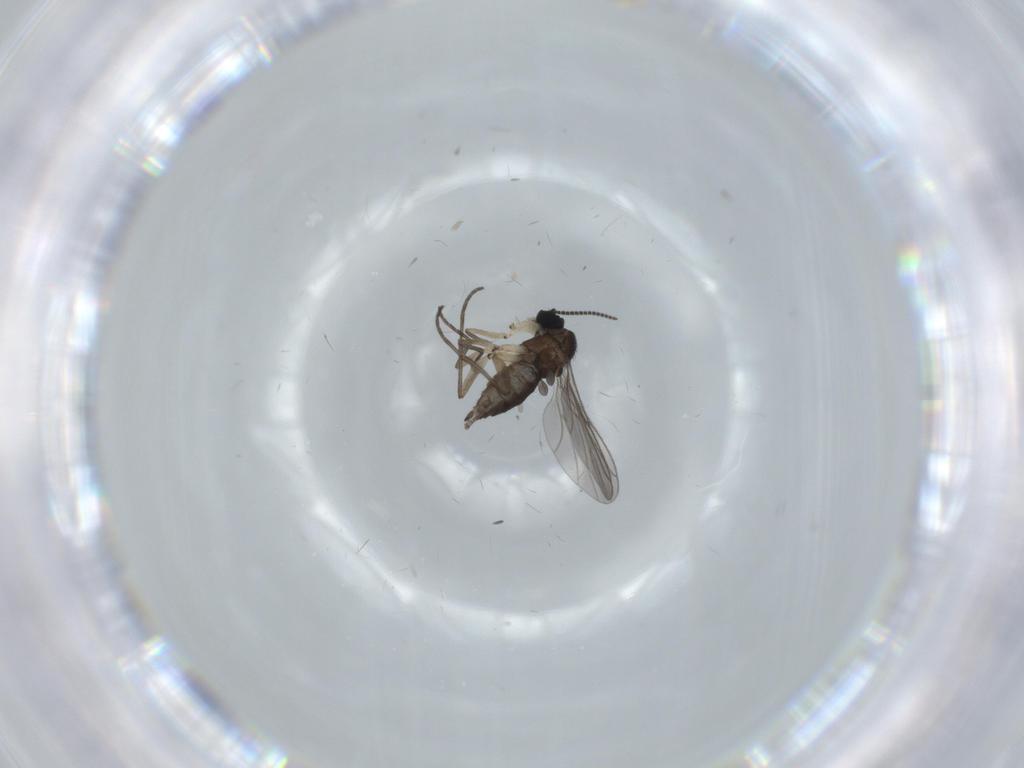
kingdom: Animalia
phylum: Arthropoda
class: Insecta
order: Diptera
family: Sciaridae
